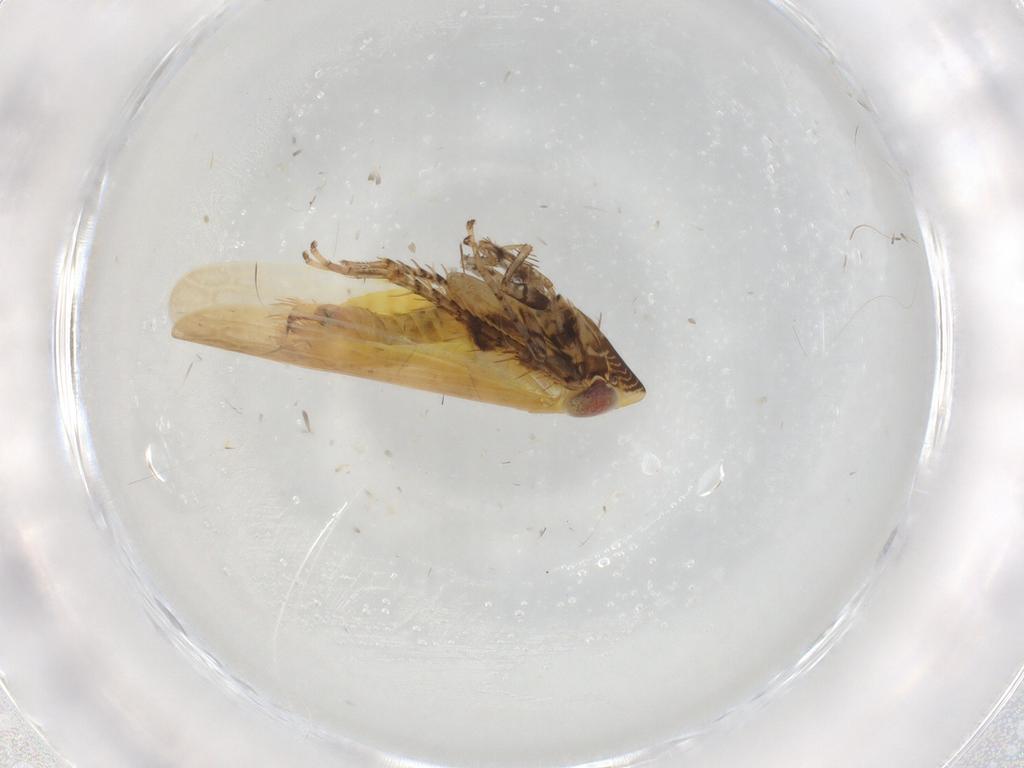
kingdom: Animalia
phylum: Arthropoda
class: Insecta
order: Hemiptera
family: Cicadellidae
